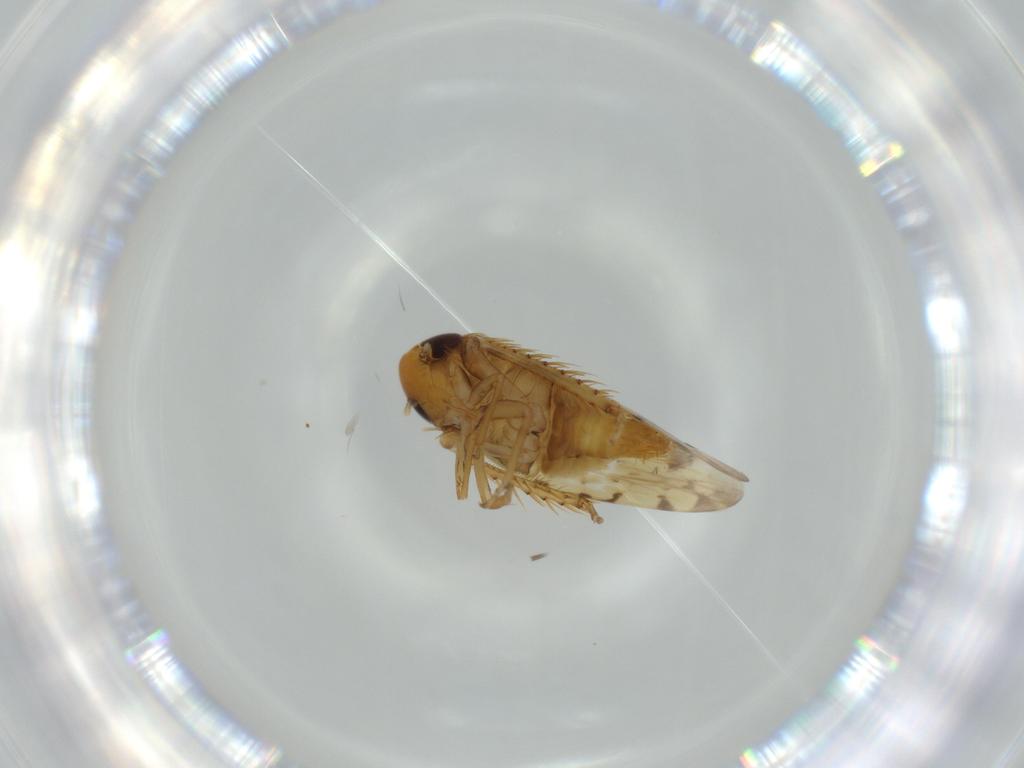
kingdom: Animalia
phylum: Arthropoda
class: Insecta
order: Hemiptera
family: Cicadellidae
